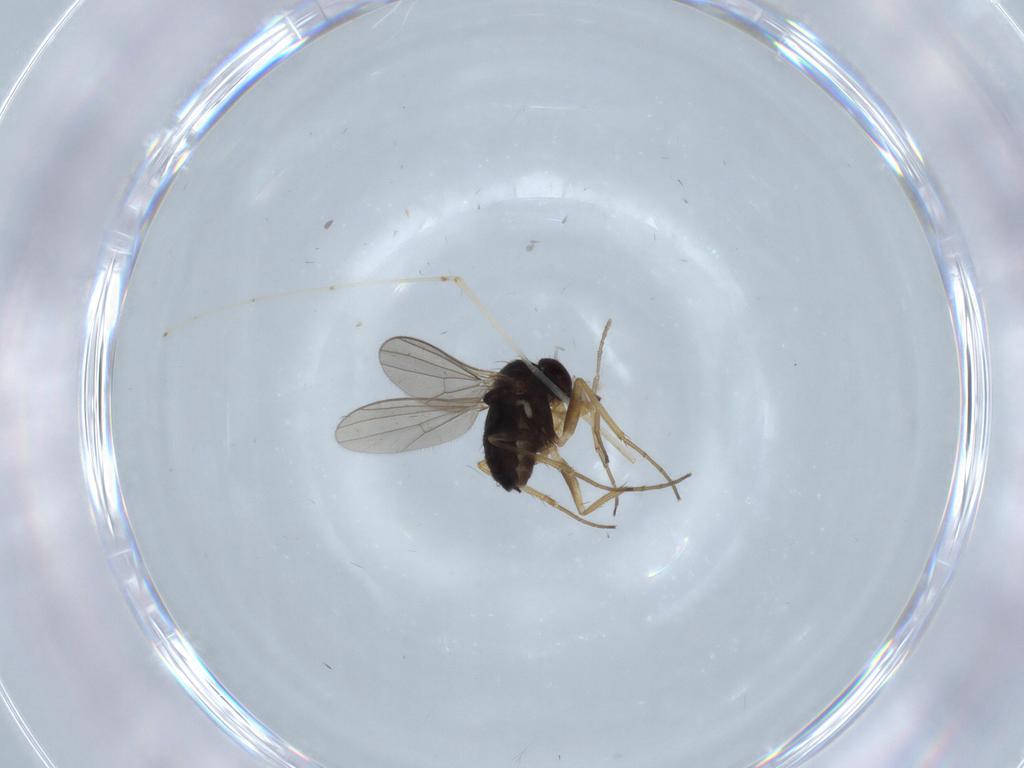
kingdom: Animalia
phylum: Arthropoda
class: Insecta
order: Diptera
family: Dolichopodidae
